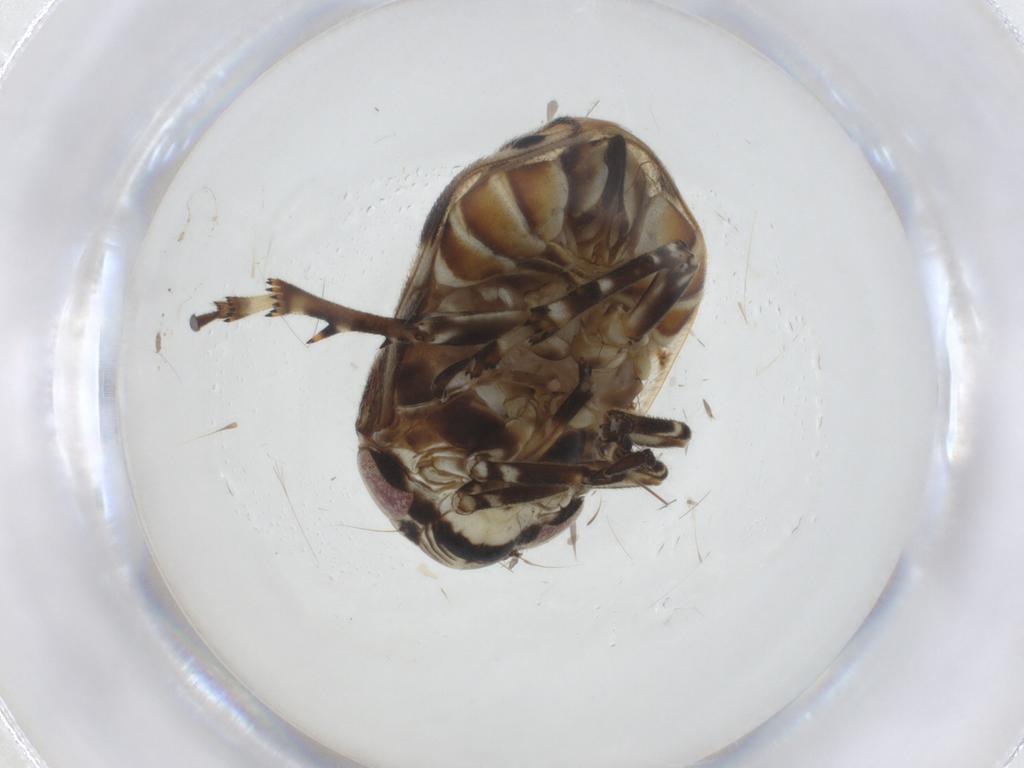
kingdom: Animalia
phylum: Arthropoda
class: Insecta
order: Hemiptera
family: Clastopteridae
